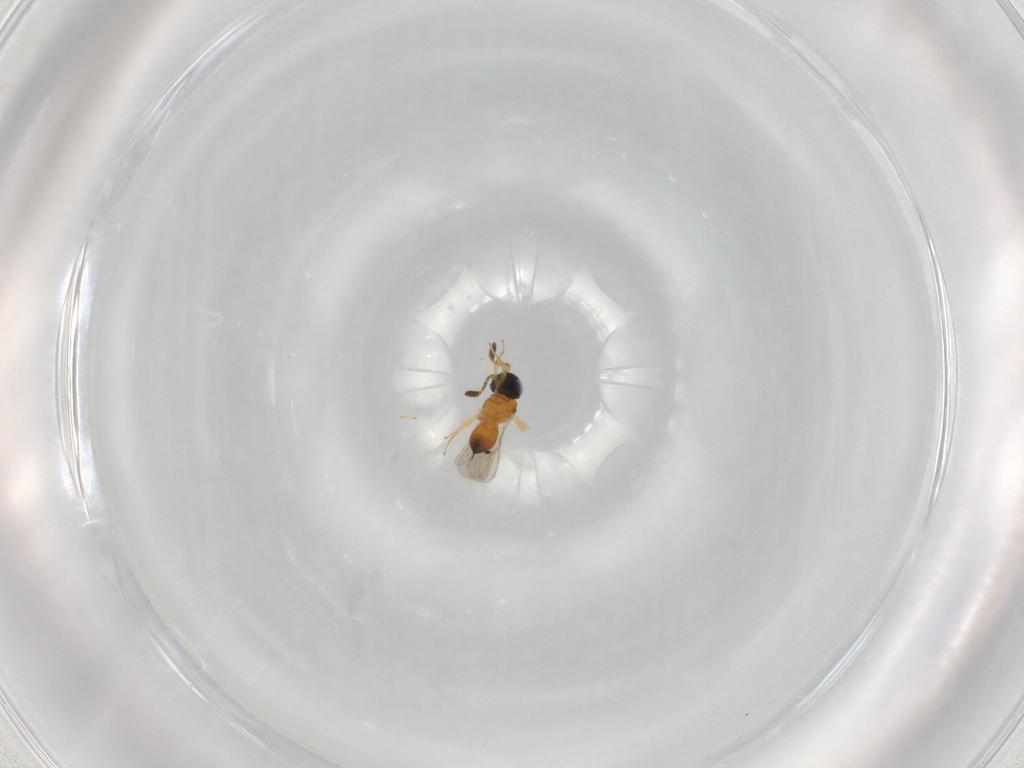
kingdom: Animalia
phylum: Arthropoda
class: Insecta
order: Hymenoptera
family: Scelionidae
